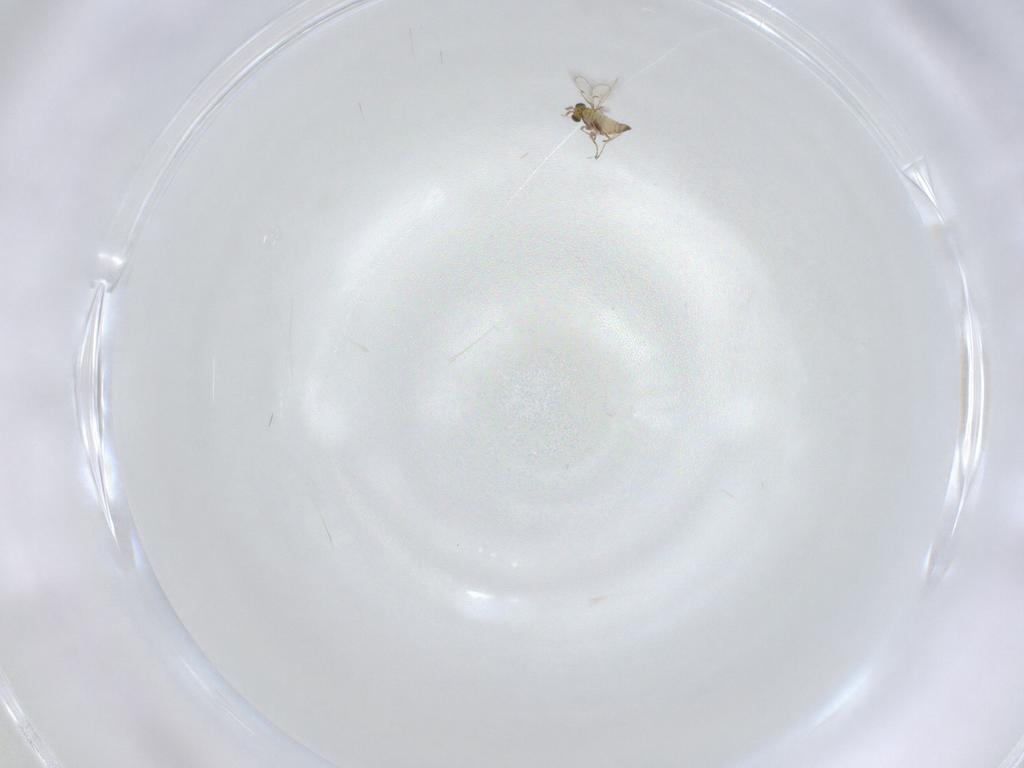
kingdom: Animalia
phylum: Arthropoda
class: Insecta
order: Hymenoptera
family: Trichogrammatidae
